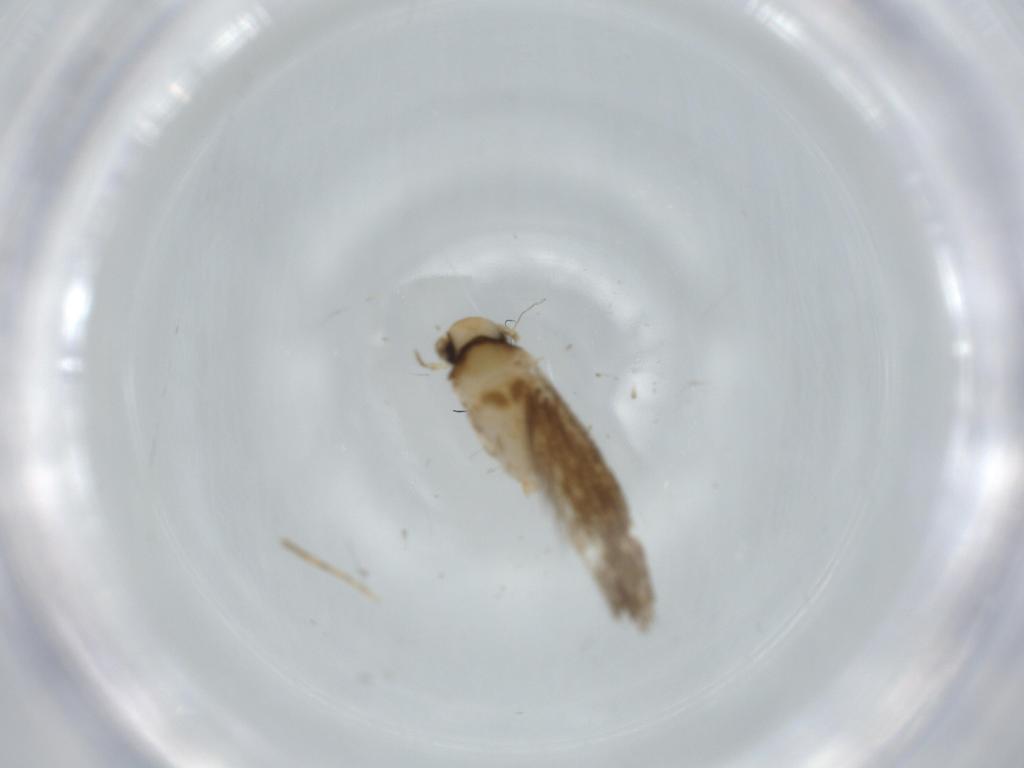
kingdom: Animalia
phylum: Arthropoda
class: Insecta
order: Lepidoptera
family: Tineidae
